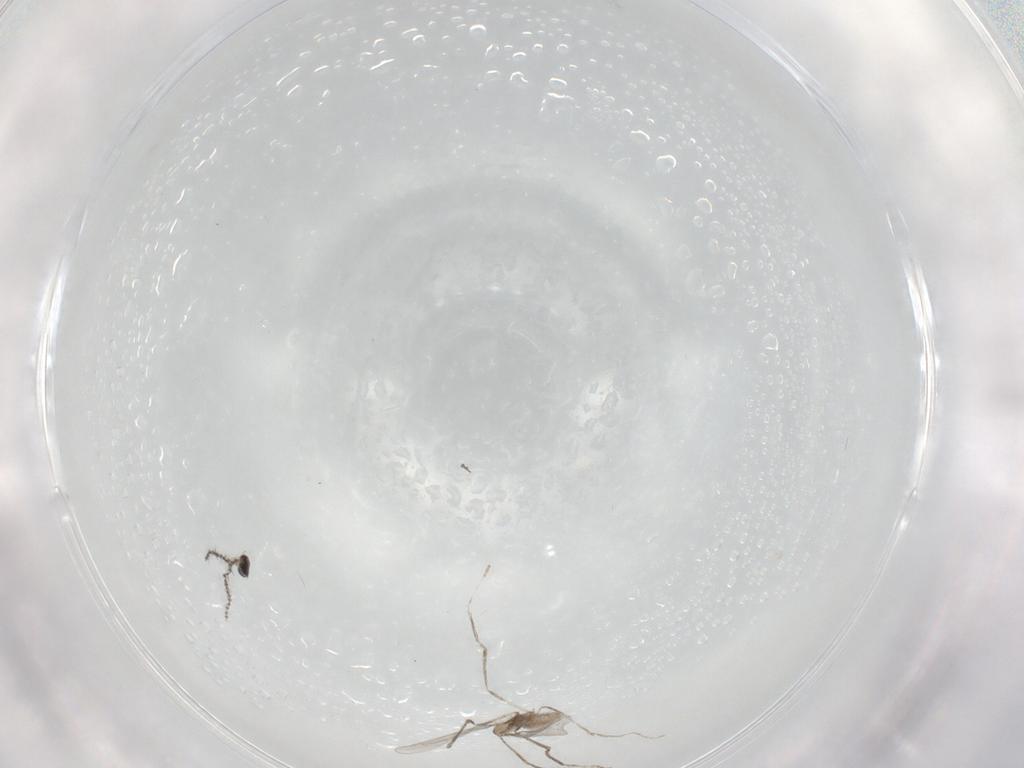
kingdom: Animalia
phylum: Arthropoda
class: Insecta
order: Diptera
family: Cecidomyiidae
